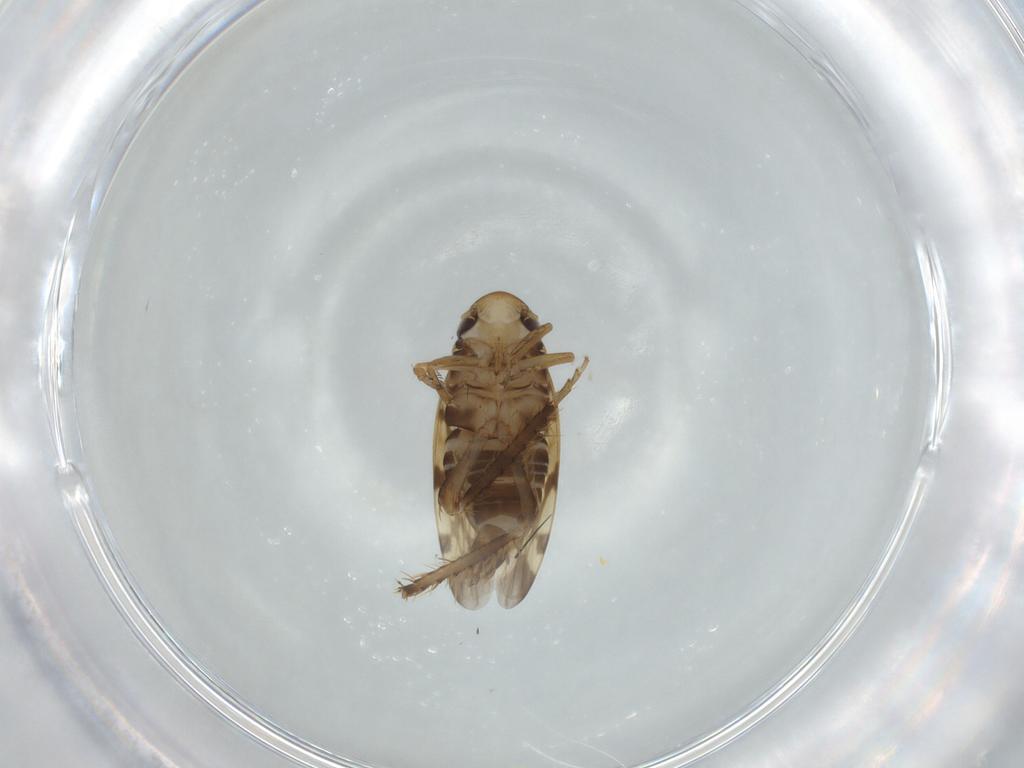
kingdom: Animalia
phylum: Arthropoda
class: Insecta
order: Hemiptera
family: Cicadellidae
